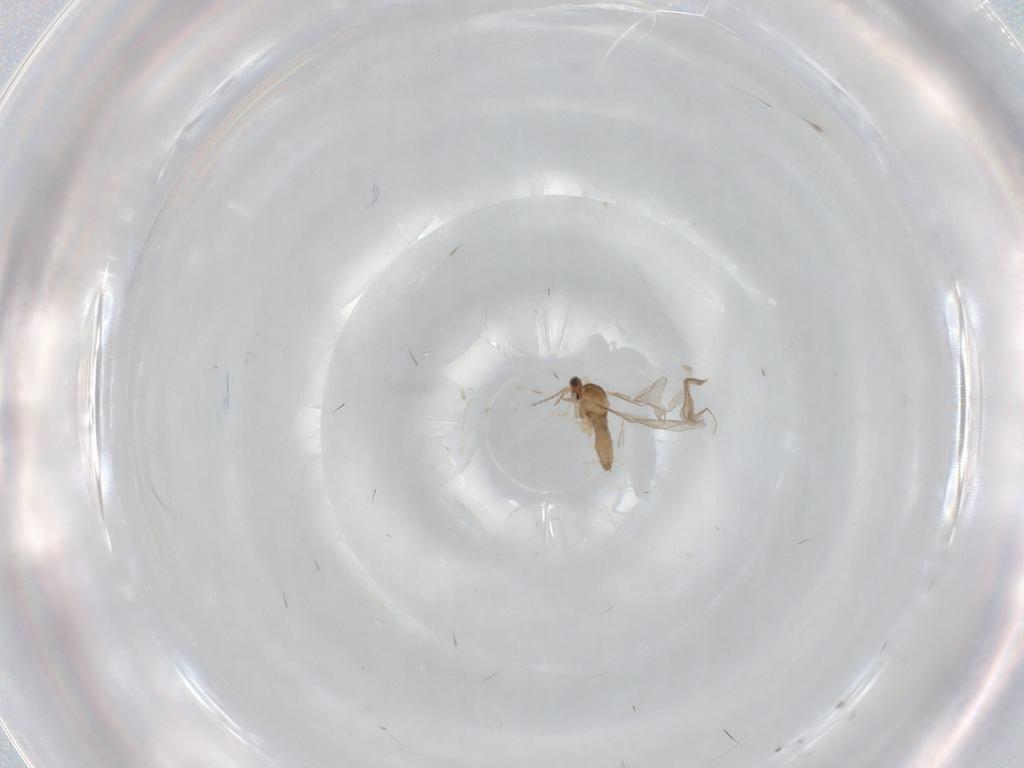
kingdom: Animalia
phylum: Arthropoda
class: Insecta
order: Diptera
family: Cecidomyiidae
